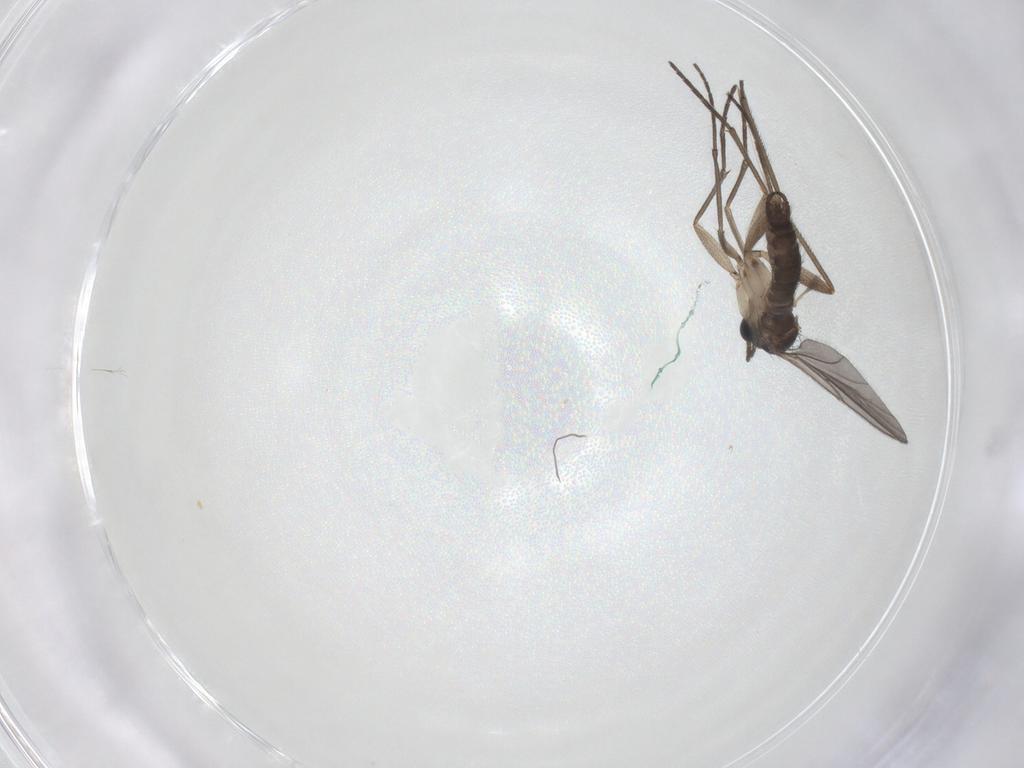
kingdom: Animalia
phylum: Arthropoda
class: Insecta
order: Diptera
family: Sciaridae
